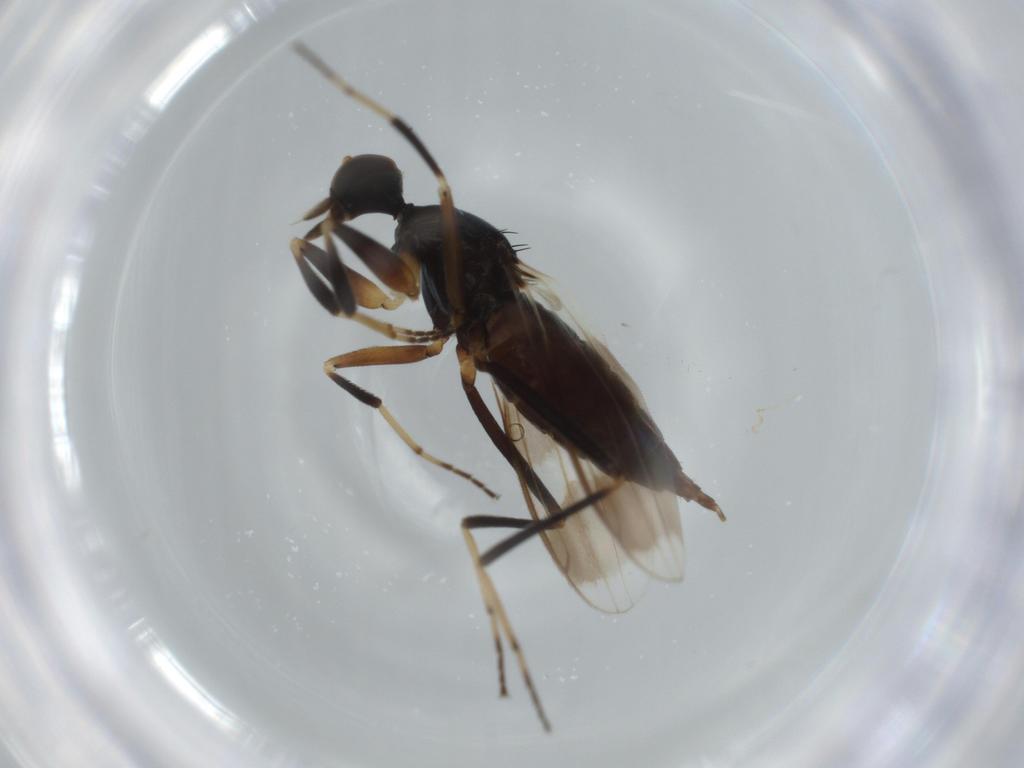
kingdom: Animalia
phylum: Arthropoda
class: Insecta
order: Diptera
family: Hybotidae
